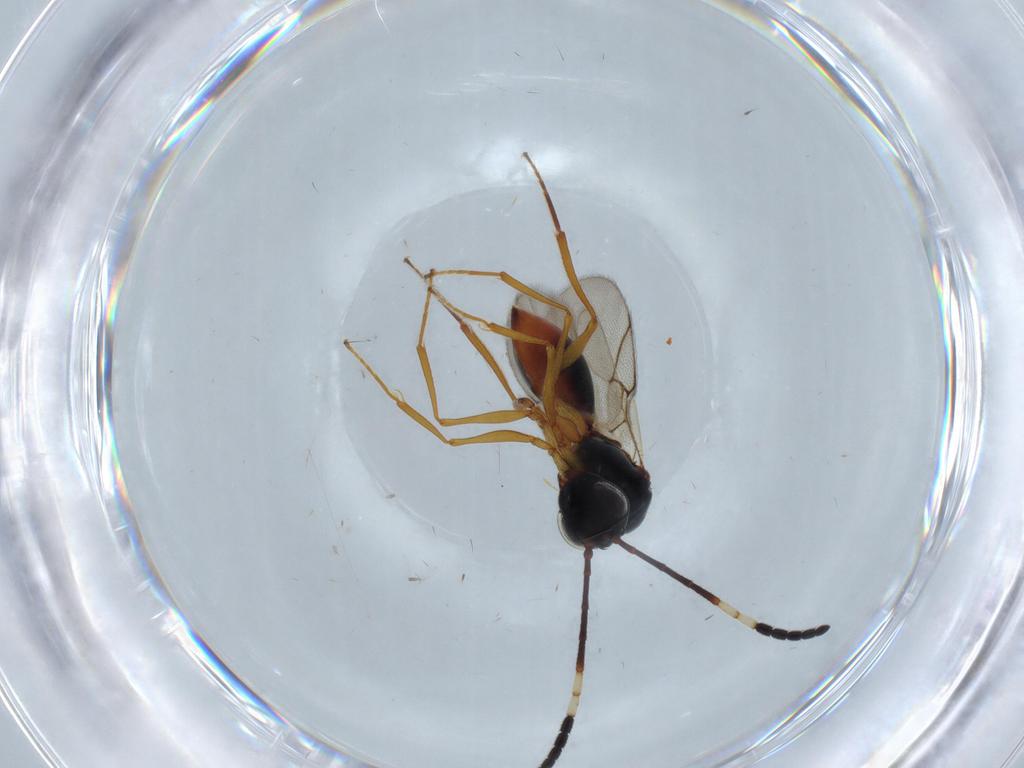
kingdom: Animalia
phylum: Arthropoda
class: Insecta
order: Hymenoptera
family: Figitidae
